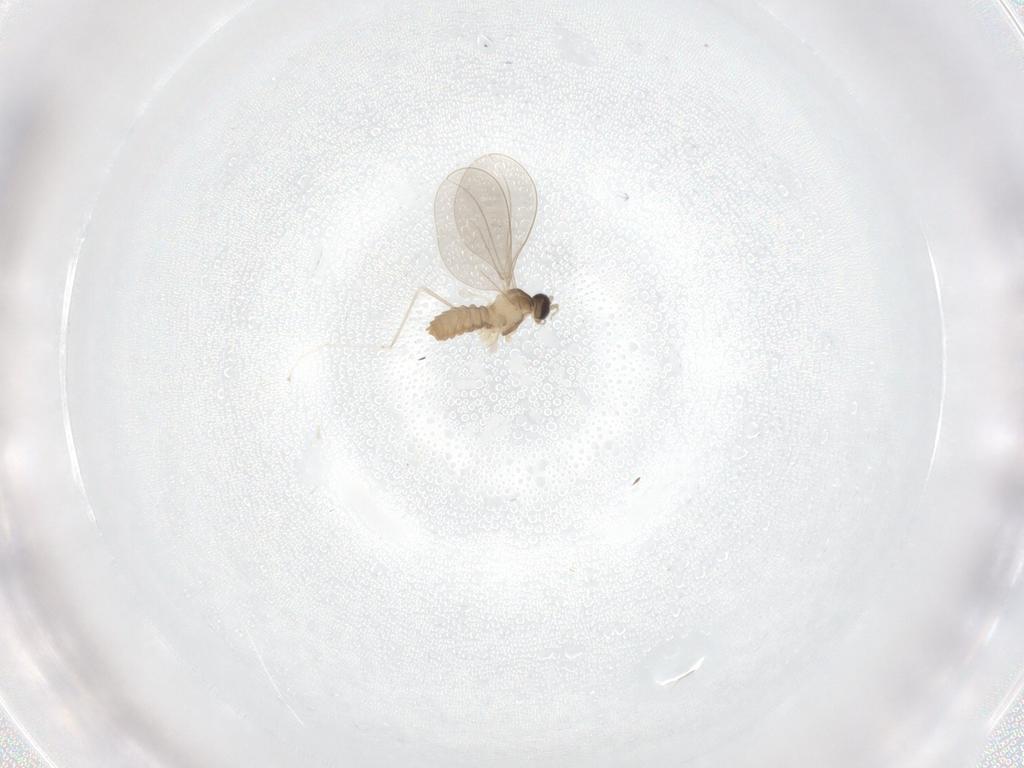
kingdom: Animalia
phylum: Arthropoda
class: Insecta
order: Diptera
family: Cecidomyiidae
